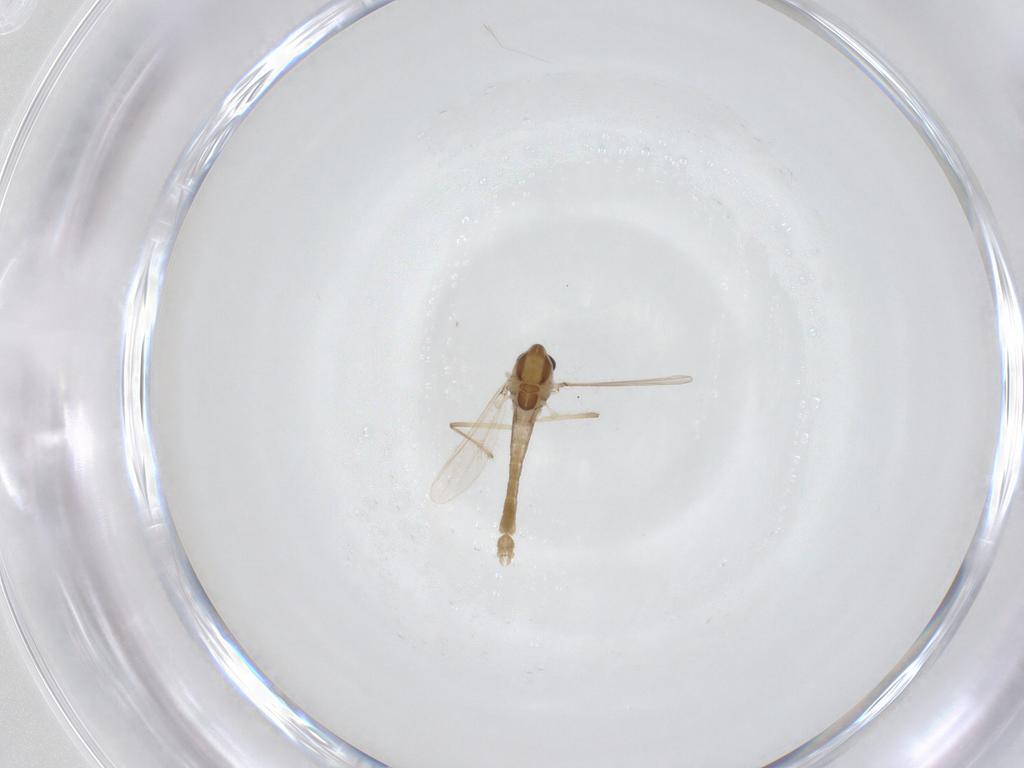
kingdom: Animalia
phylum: Arthropoda
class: Insecta
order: Diptera
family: Chironomidae
